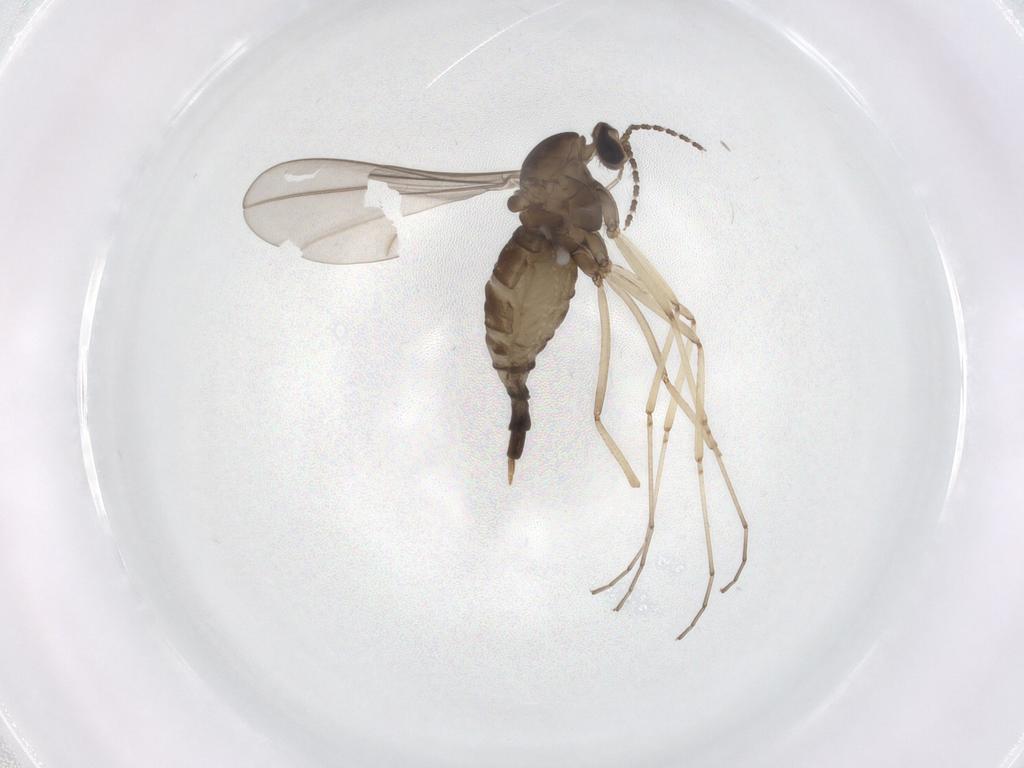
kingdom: Animalia
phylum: Arthropoda
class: Insecta
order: Diptera
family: Cecidomyiidae
